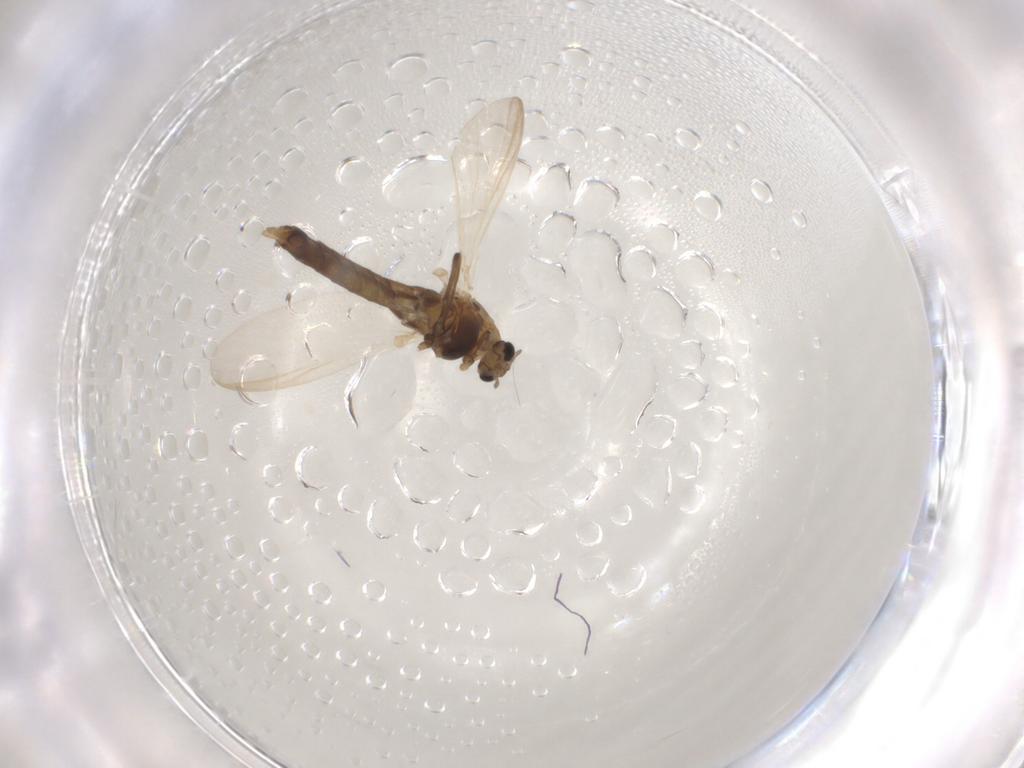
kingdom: Animalia
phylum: Arthropoda
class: Insecta
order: Diptera
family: Chironomidae
